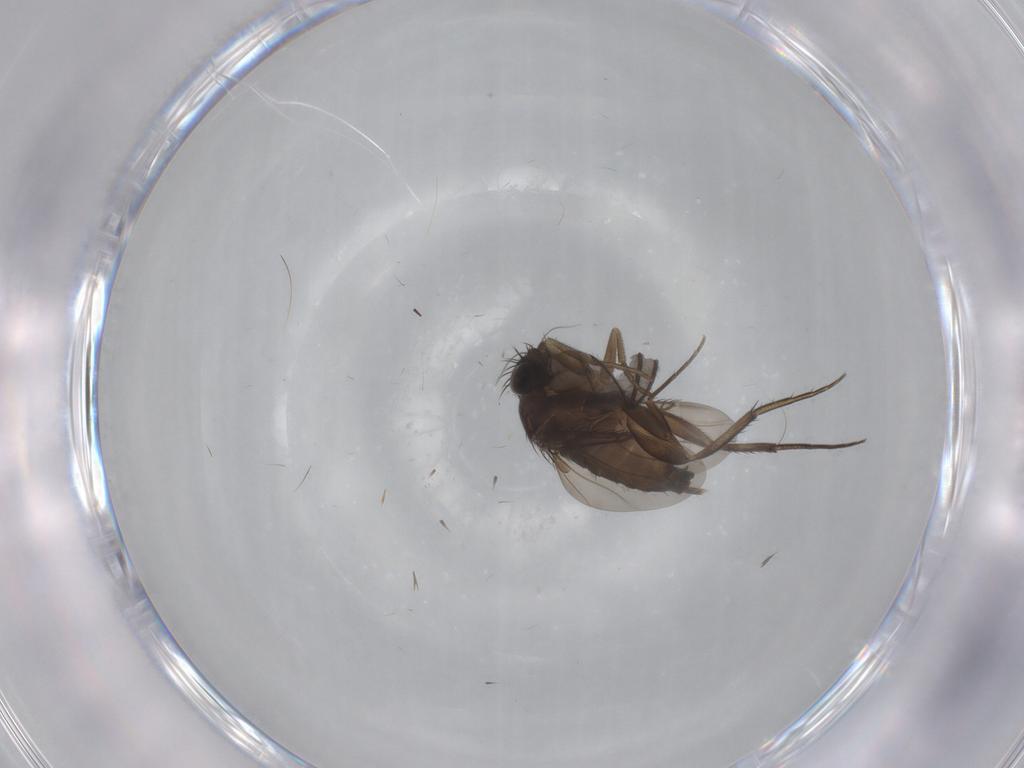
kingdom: Animalia
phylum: Arthropoda
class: Insecta
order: Diptera
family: Phoridae
